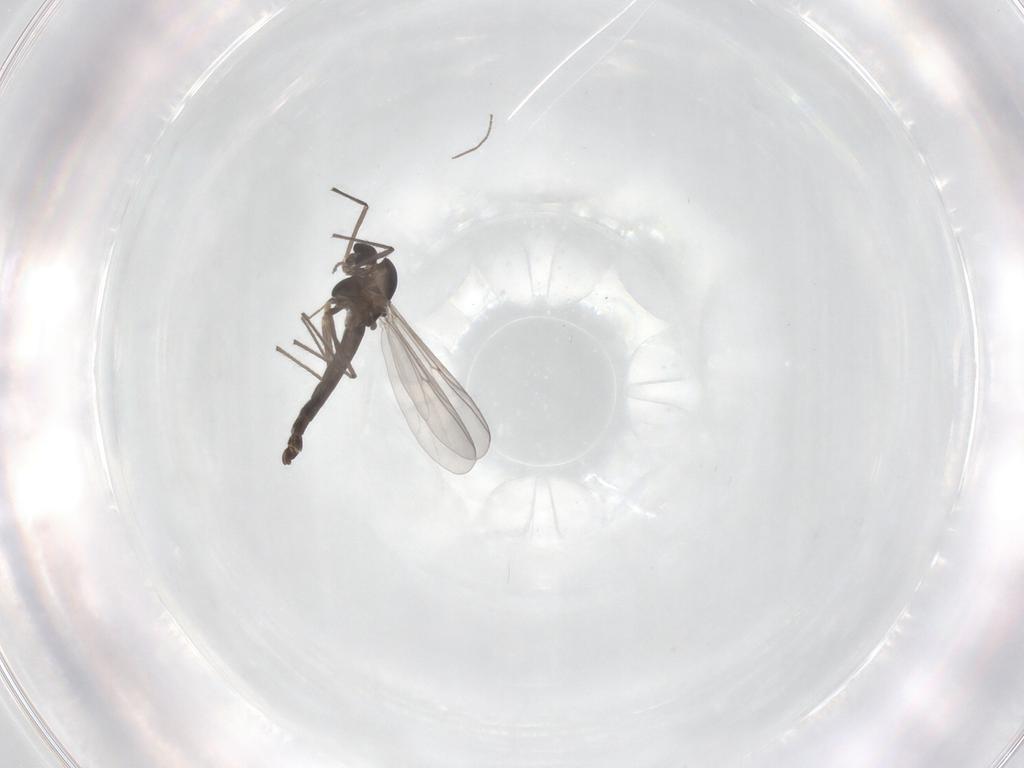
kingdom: Animalia
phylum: Arthropoda
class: Insecta
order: Diptera
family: Chironomidae
